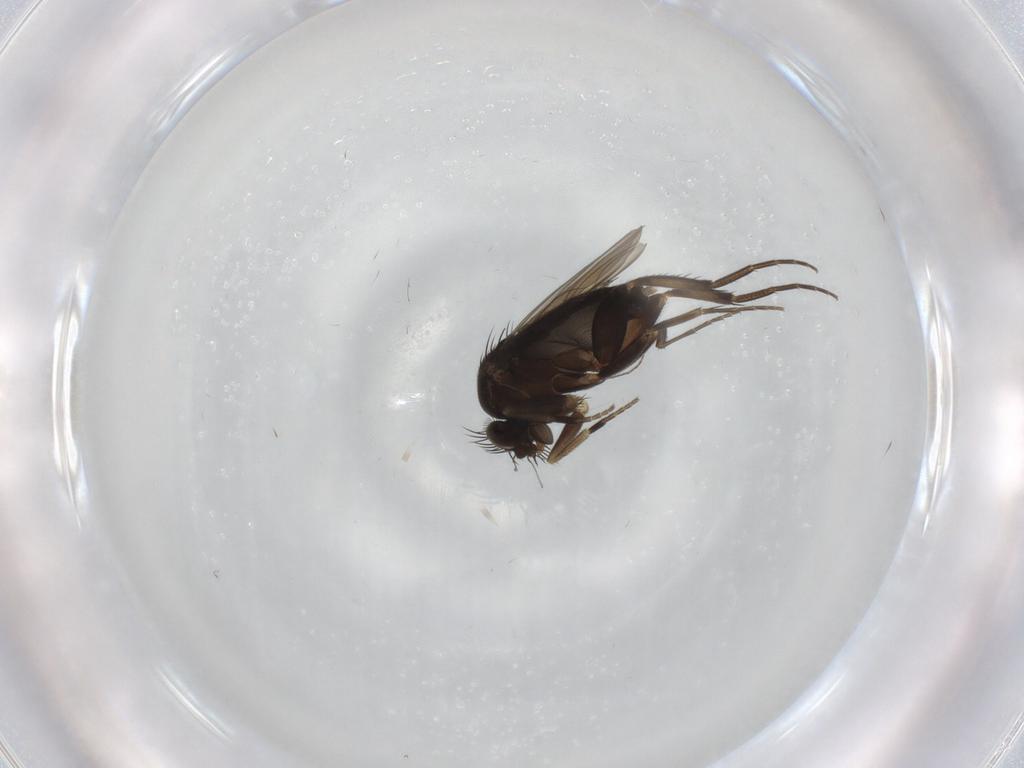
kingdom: Animalia
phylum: Arthropoda
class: Insecta
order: Diptera
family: Phoridae
